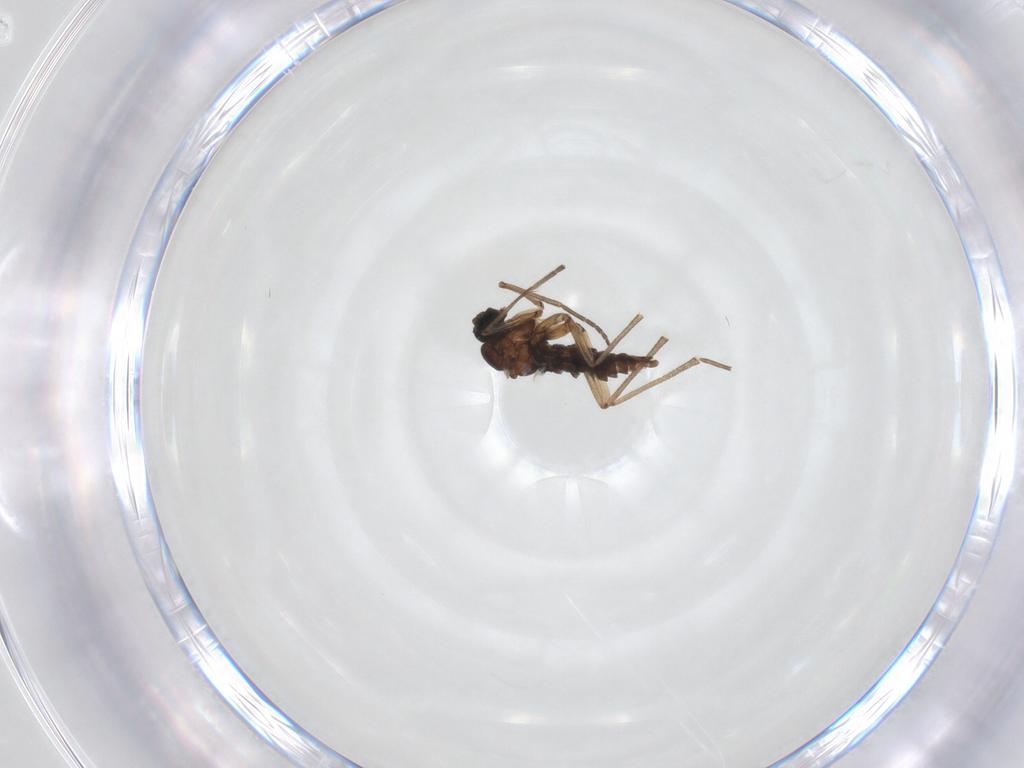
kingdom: Animalia
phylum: Arthropoda
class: Insecta
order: Diptera
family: Sciaridae
